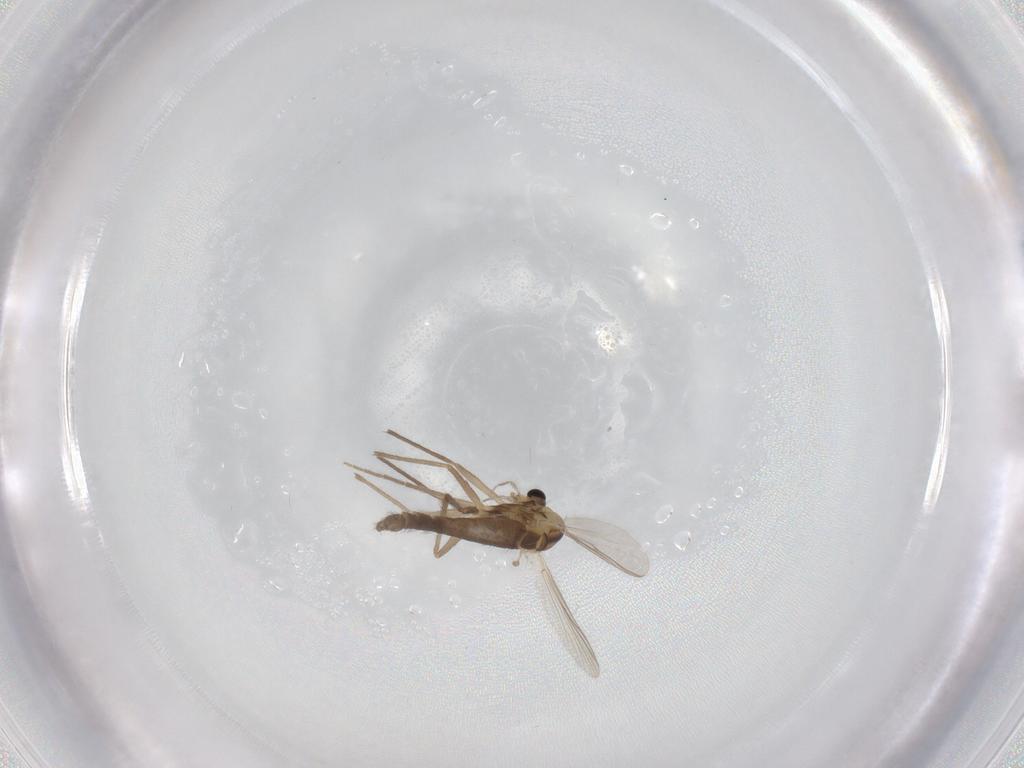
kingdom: Animalia
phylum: Arthropoda
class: Insecta
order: Diptera
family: Chironomidae
